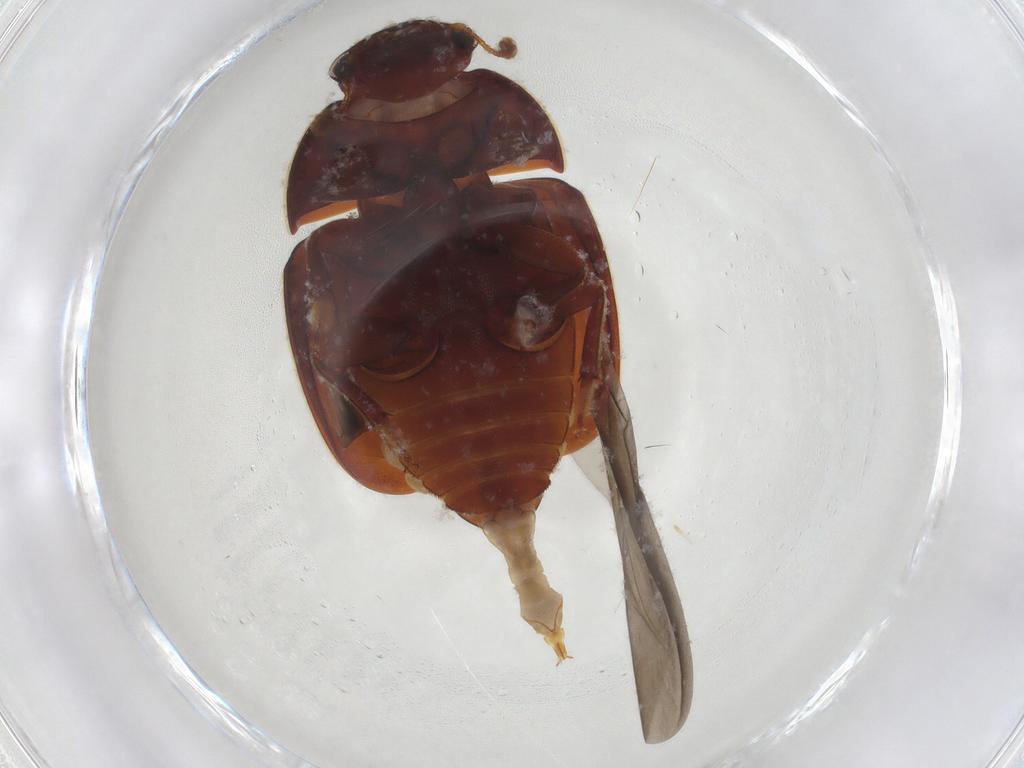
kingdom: Animalia
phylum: Arthropoda
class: Insecta
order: Coleoptera
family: Nitidulidae
